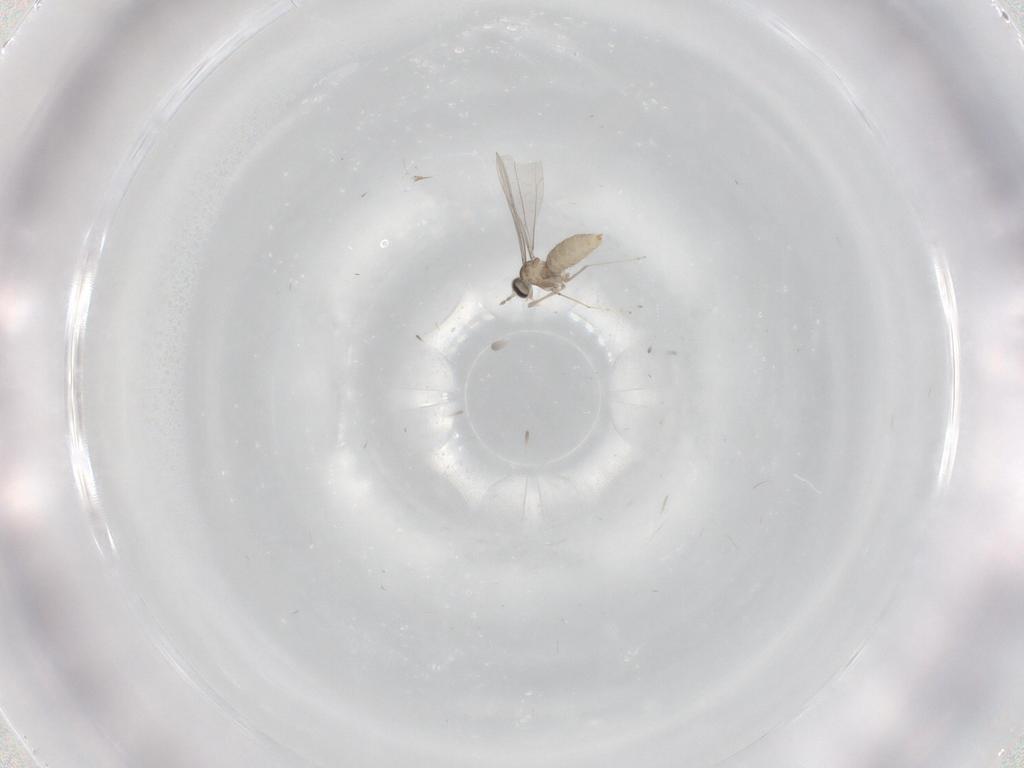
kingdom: Animalia
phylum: Arthropoda
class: Insecta
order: Diptera
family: Cecidomyiidae
